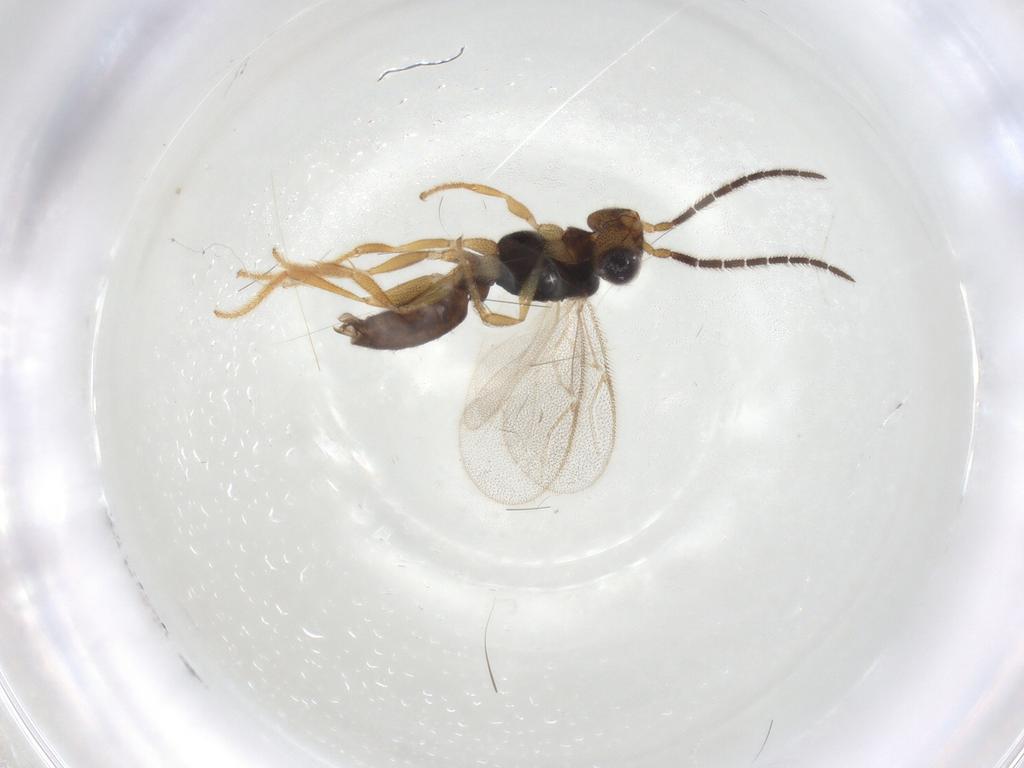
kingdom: Animalia
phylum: Arthropoda
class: Insecta
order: Hymenoptera
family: Dryinidae
